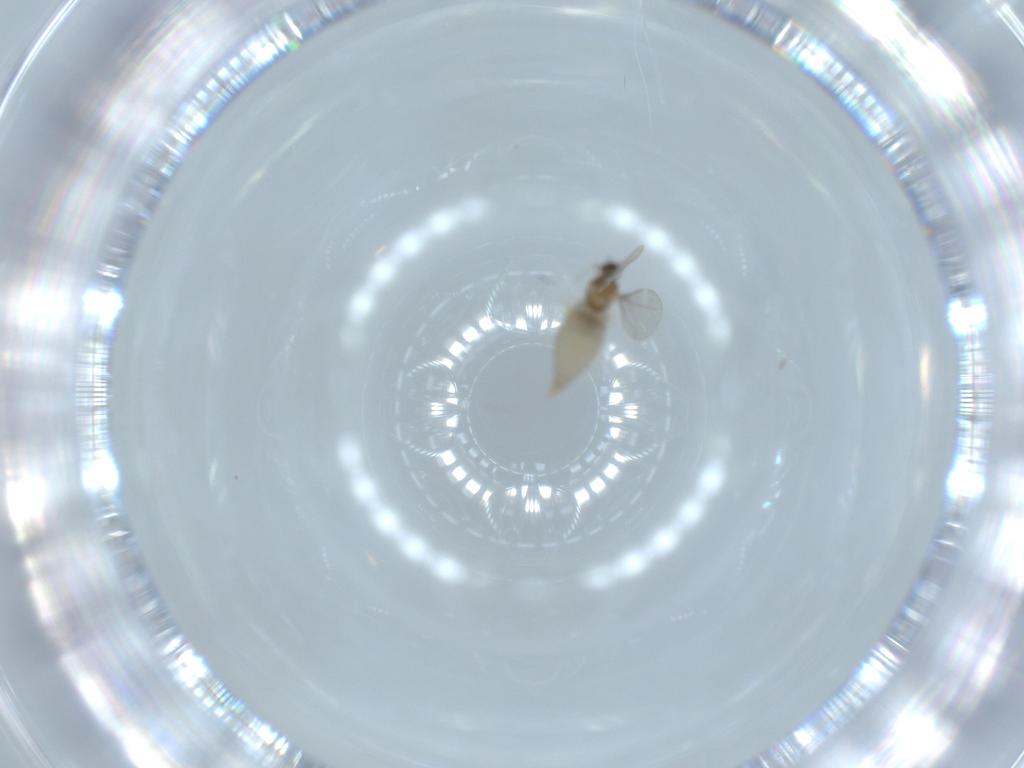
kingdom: Animalia
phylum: Arthropoda
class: Insecta
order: Diptera
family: Cecidomyiidae
